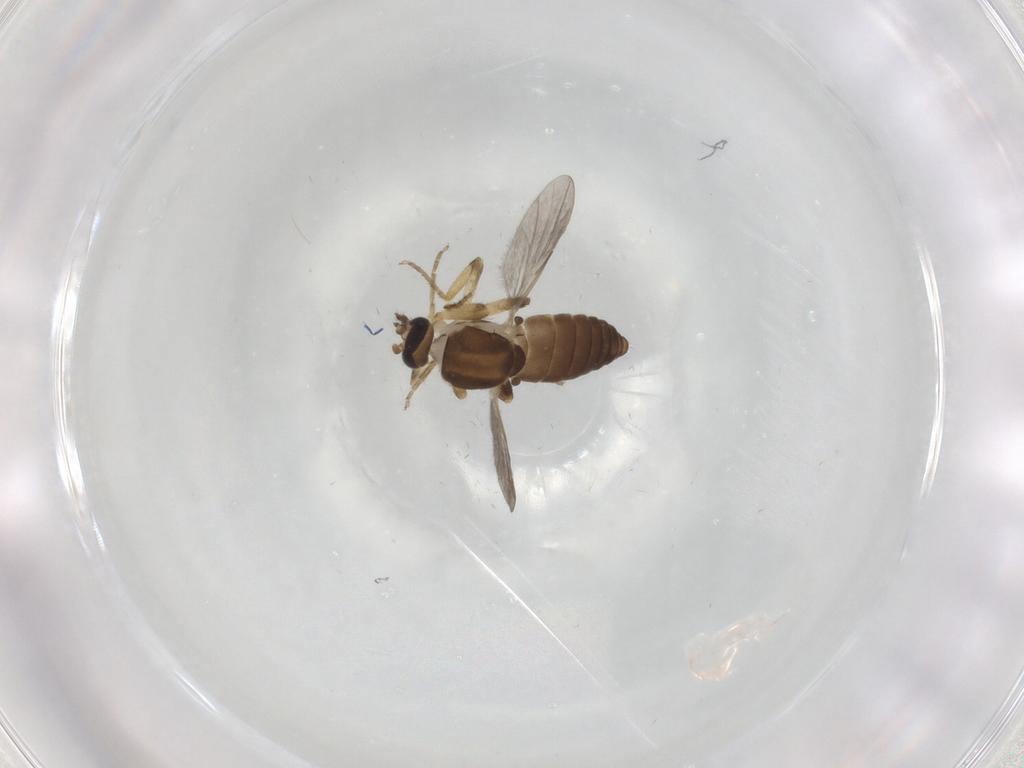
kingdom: Animalia
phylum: Arthropoda
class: Insecta
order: Diptera
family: Ceratopogonidae
